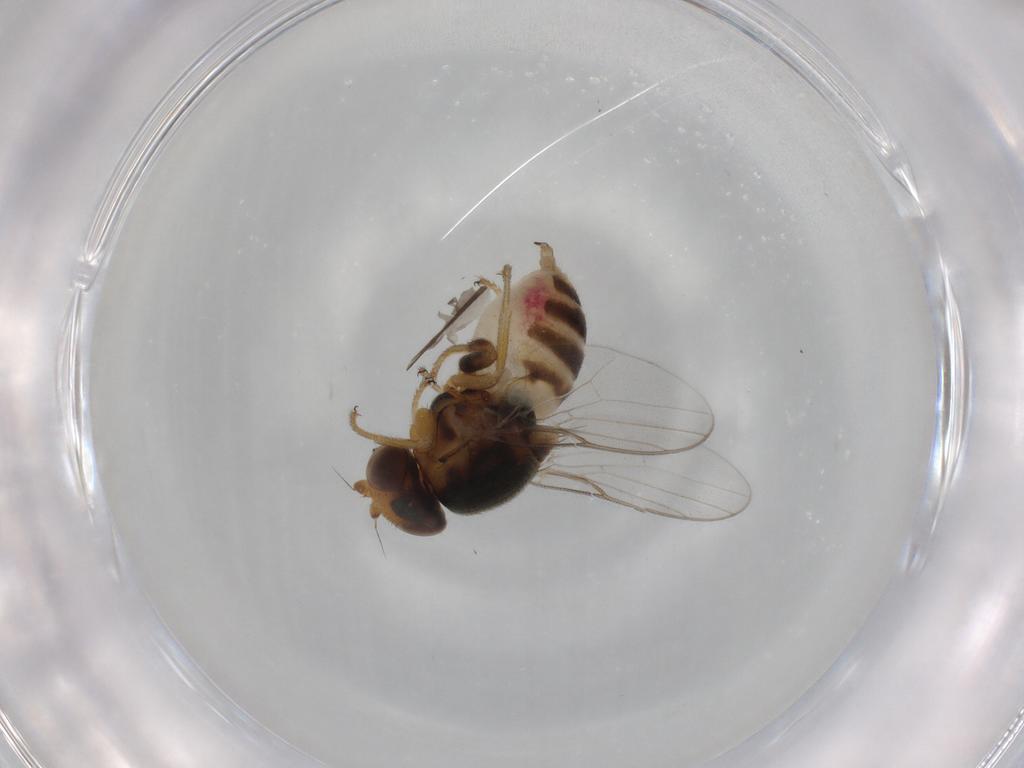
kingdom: Animalia
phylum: Arthropoda
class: Insecta
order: Diptera
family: Chloropidae
